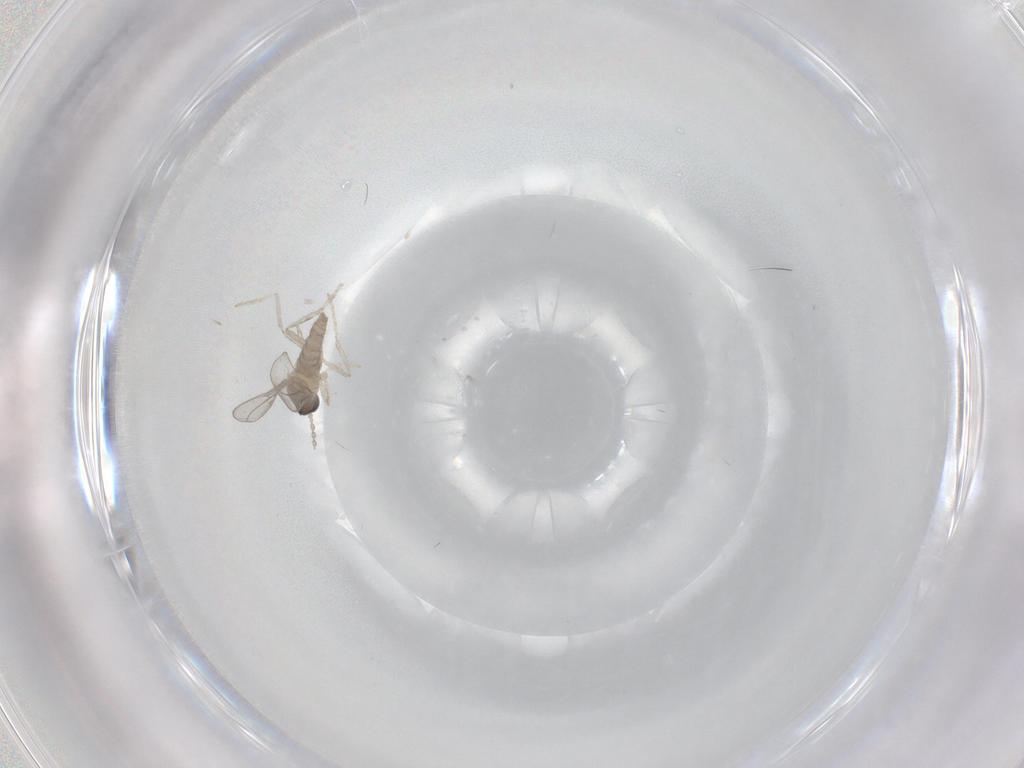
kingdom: Animalia
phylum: Arthropoda
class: Insecta
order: Diptera
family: Cecidomyiidae
